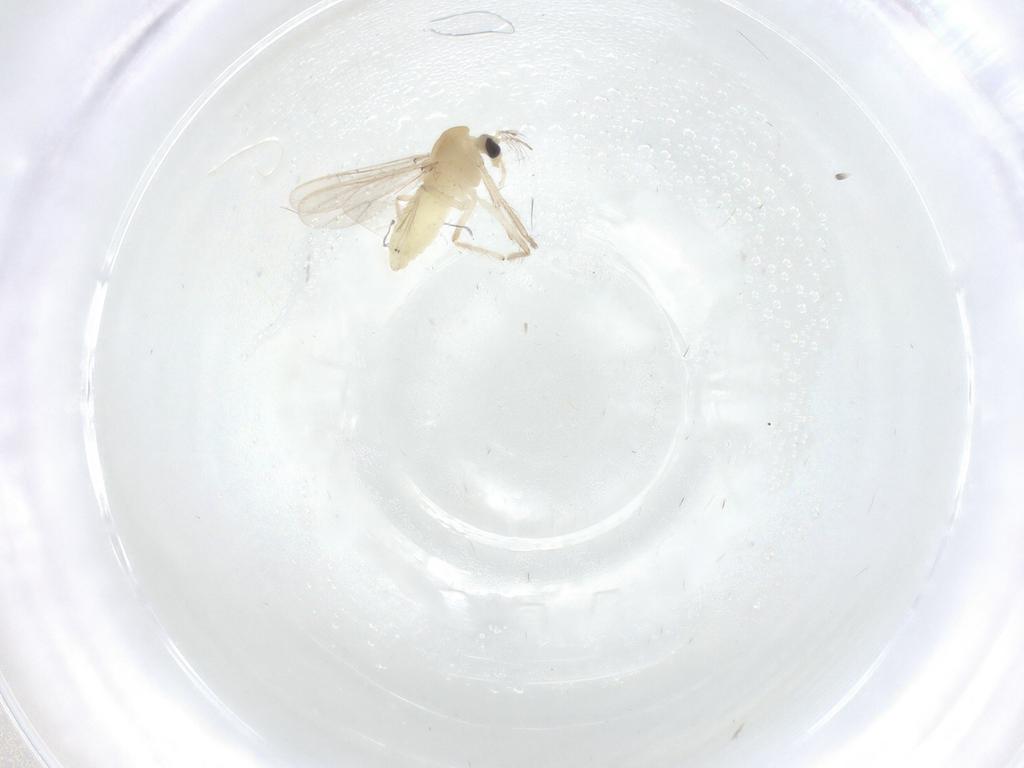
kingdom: Animalia
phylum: Arthropoda
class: Insecta
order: Diptera
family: Chironomidae
